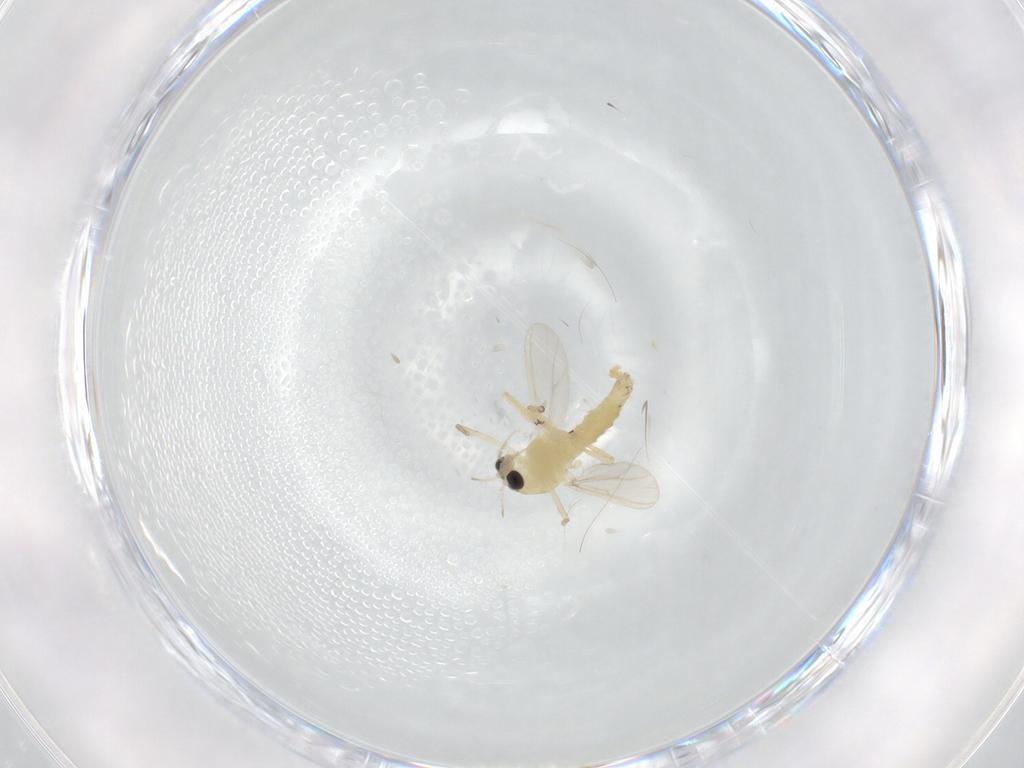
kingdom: Animalia
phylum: Arthropoda
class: Insecta
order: Diptera
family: Chironomidae
